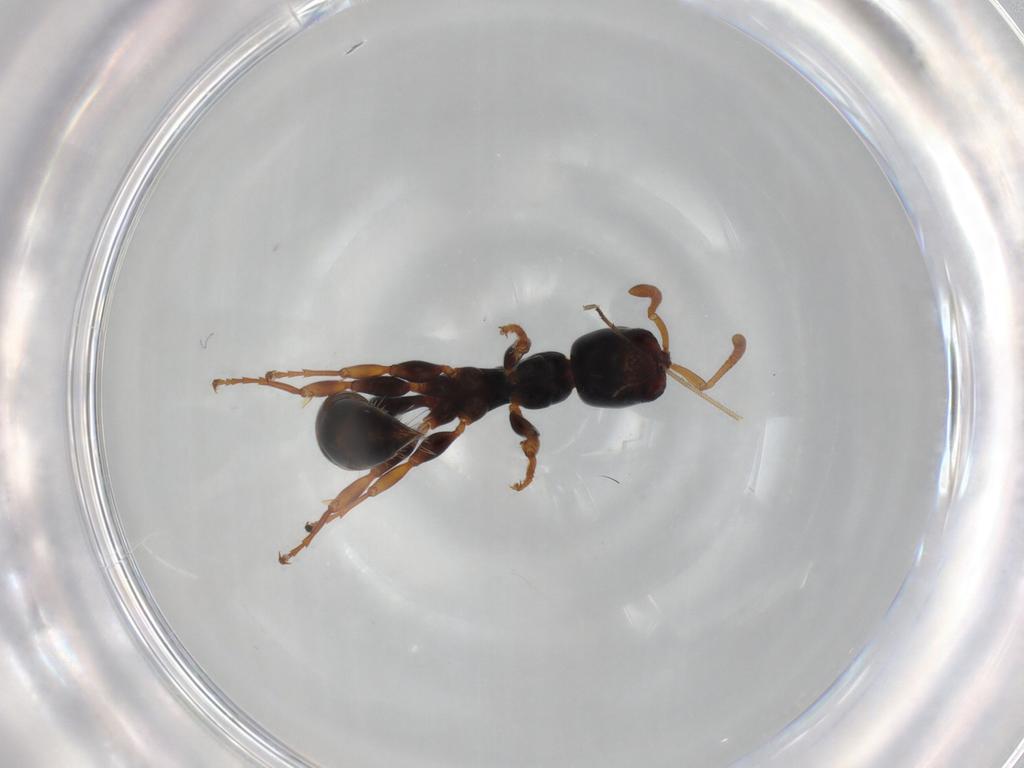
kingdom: Animalia
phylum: Arthropoda
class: Insecta
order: Hymenoptera
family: Formicidae
